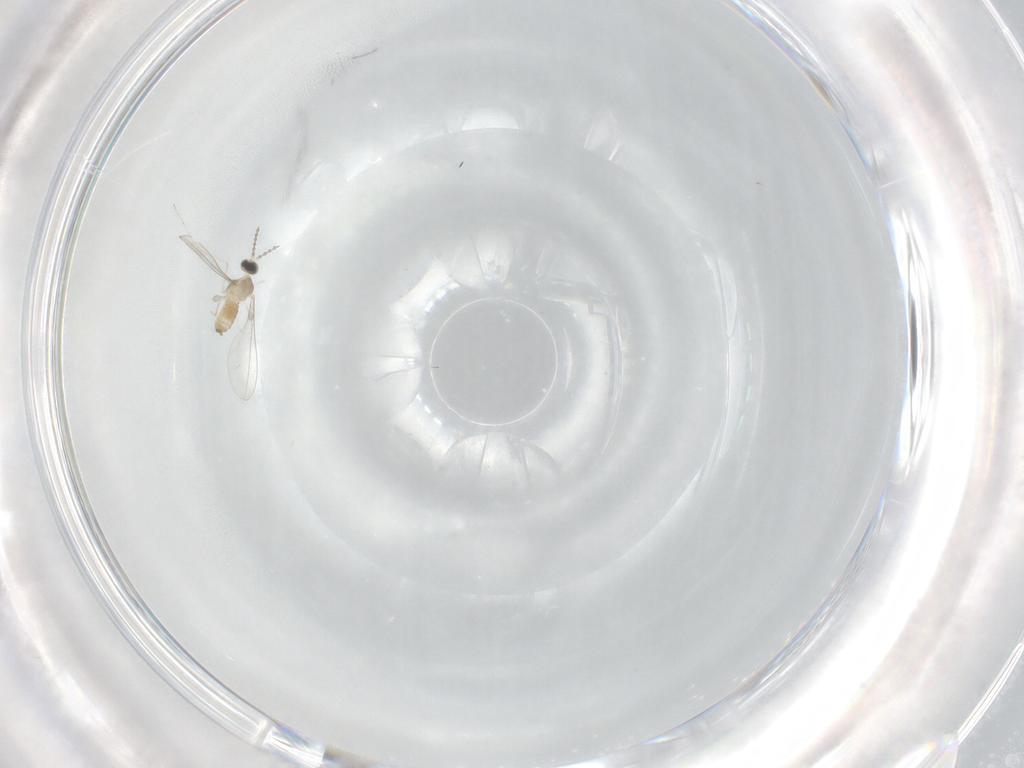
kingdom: Animalia
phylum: Arthropoda
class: Insecta
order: Diptera
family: Cecidomyiidae
